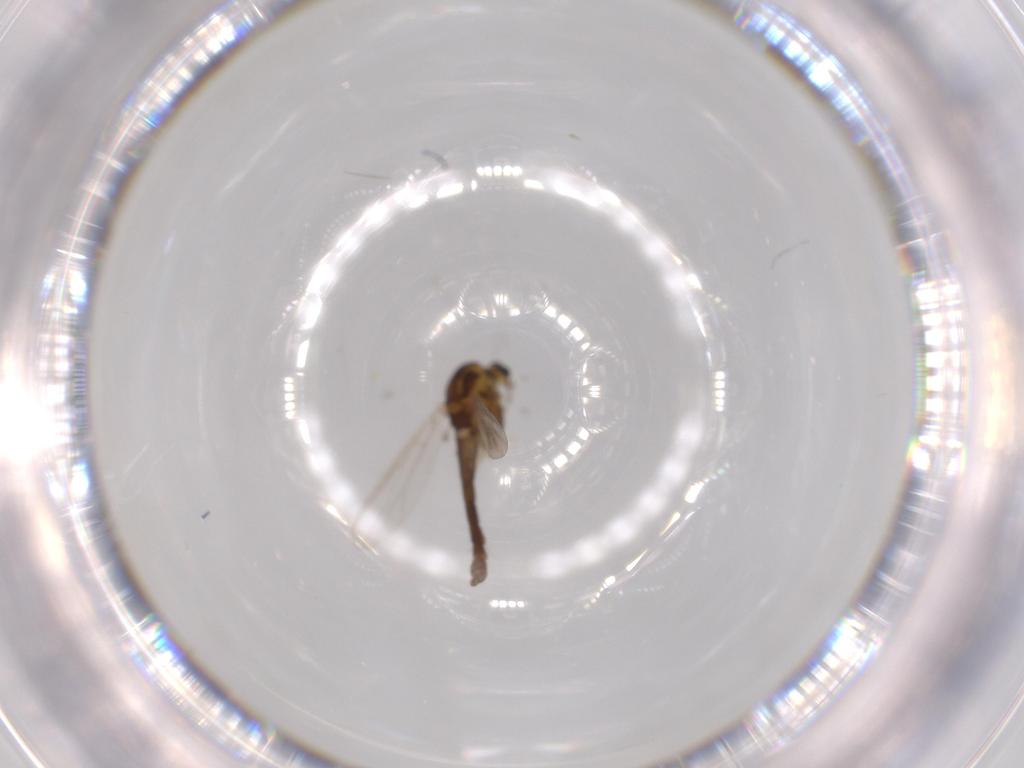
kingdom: Animalia
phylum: Arthropoda
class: Insecta
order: Diptera
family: Chironomidae
